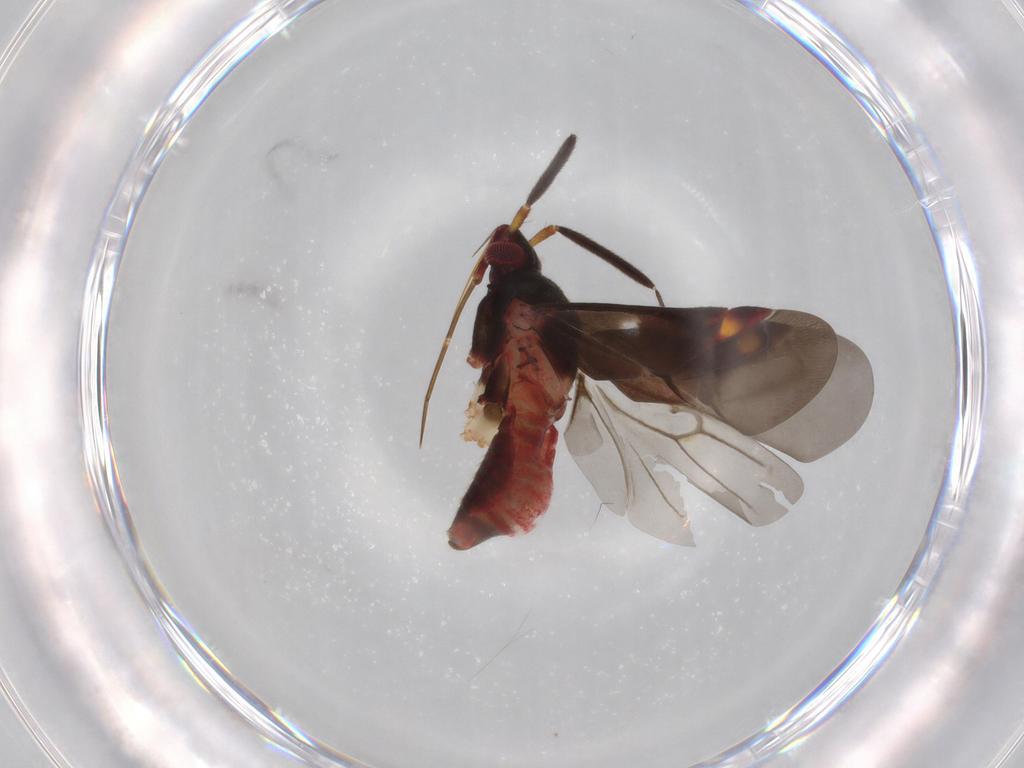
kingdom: Animalia
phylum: Arthropoda
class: Insecta
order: Hemiptera
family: Miridae
